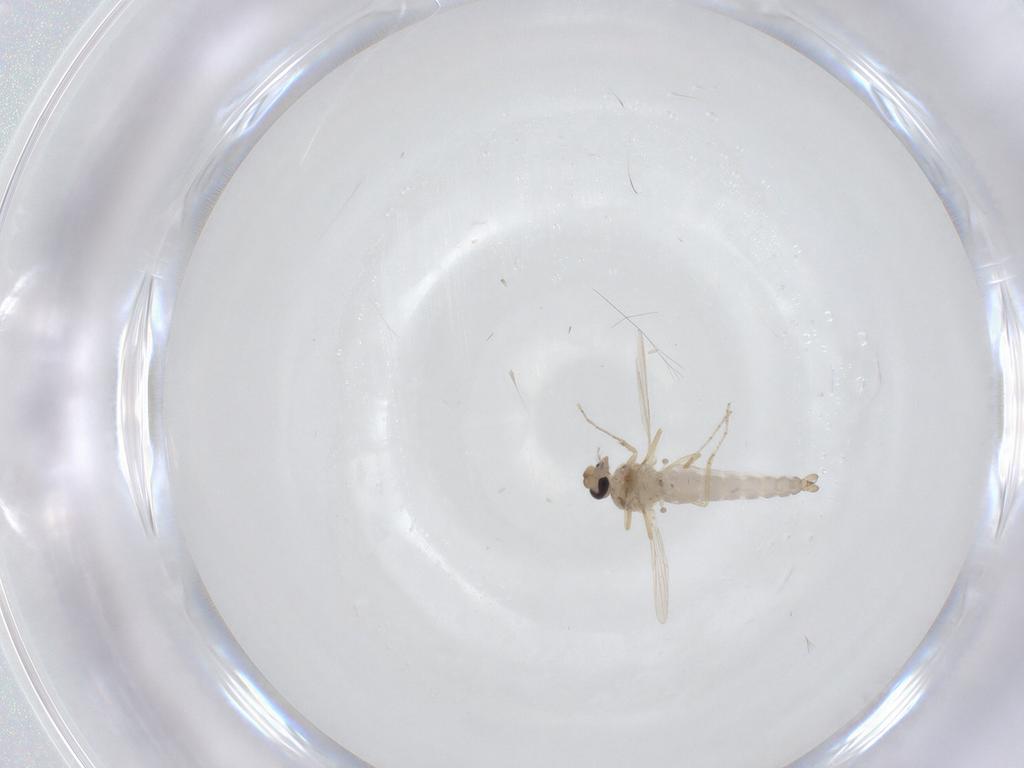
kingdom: Animalia
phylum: Arthropoda
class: Insecta
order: Diptera
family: Ceratopogonidae
